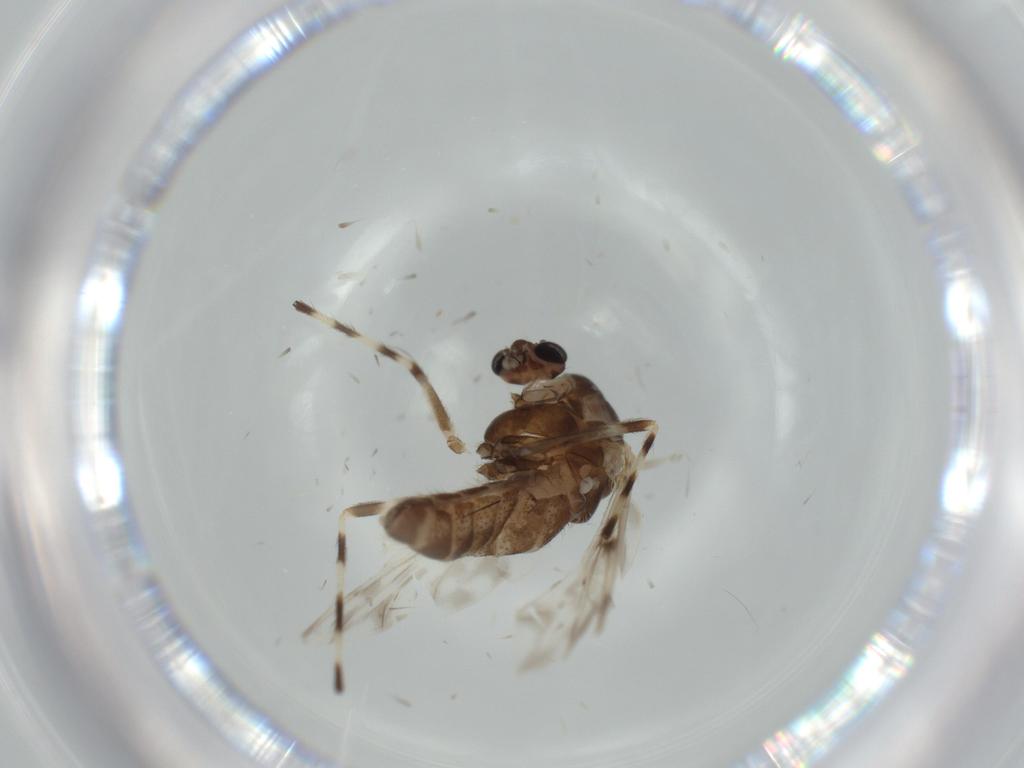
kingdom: Animalia
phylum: Arthropoda
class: Insecta
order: Diptera
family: Chironomidae
